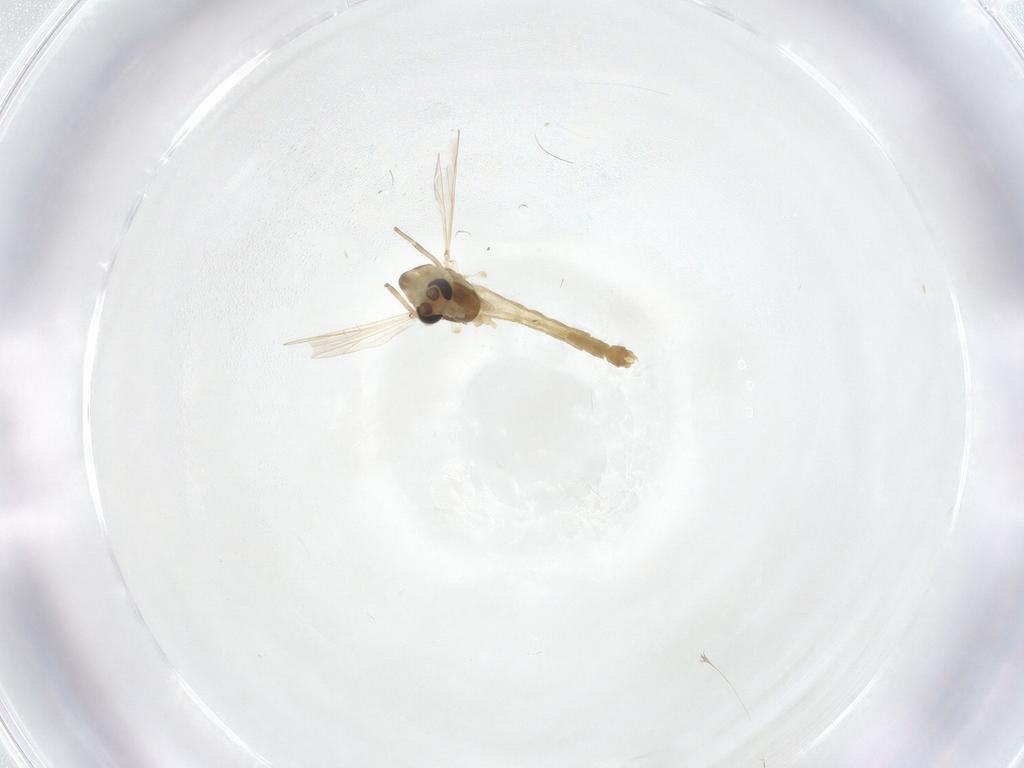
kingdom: Animalia
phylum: Arthropoda
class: Insecta
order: Diptera
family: Chironomidae
